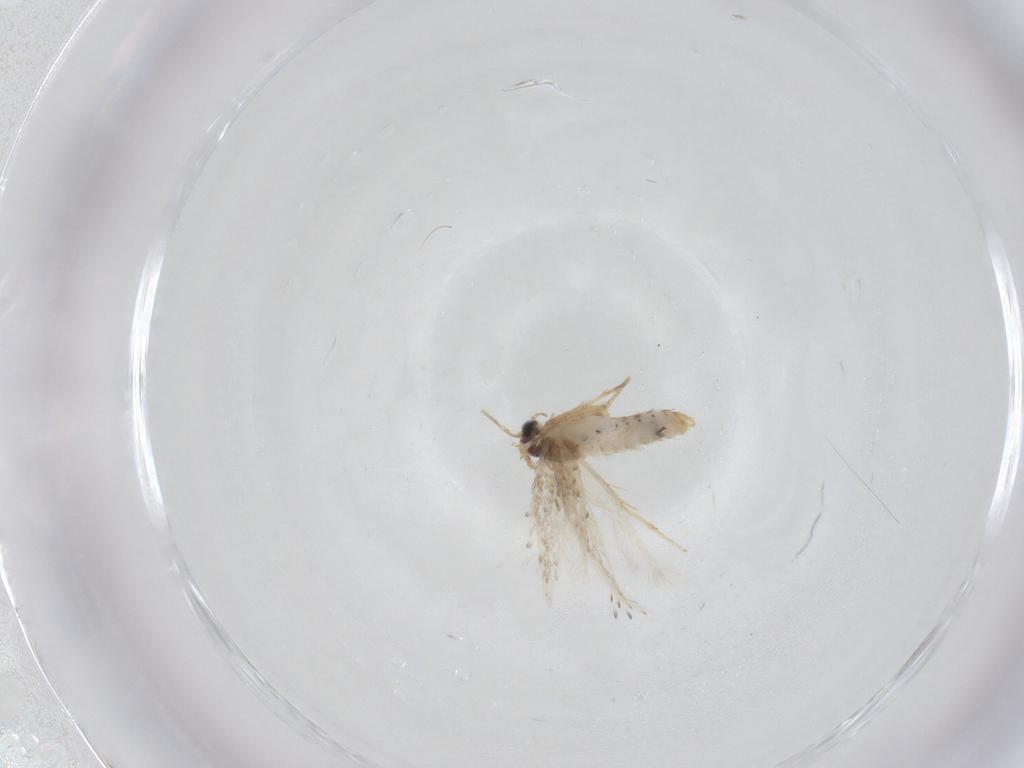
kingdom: Animalia
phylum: Arthropoda
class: Insecta
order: Lepidoptera
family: Nepticulidae
